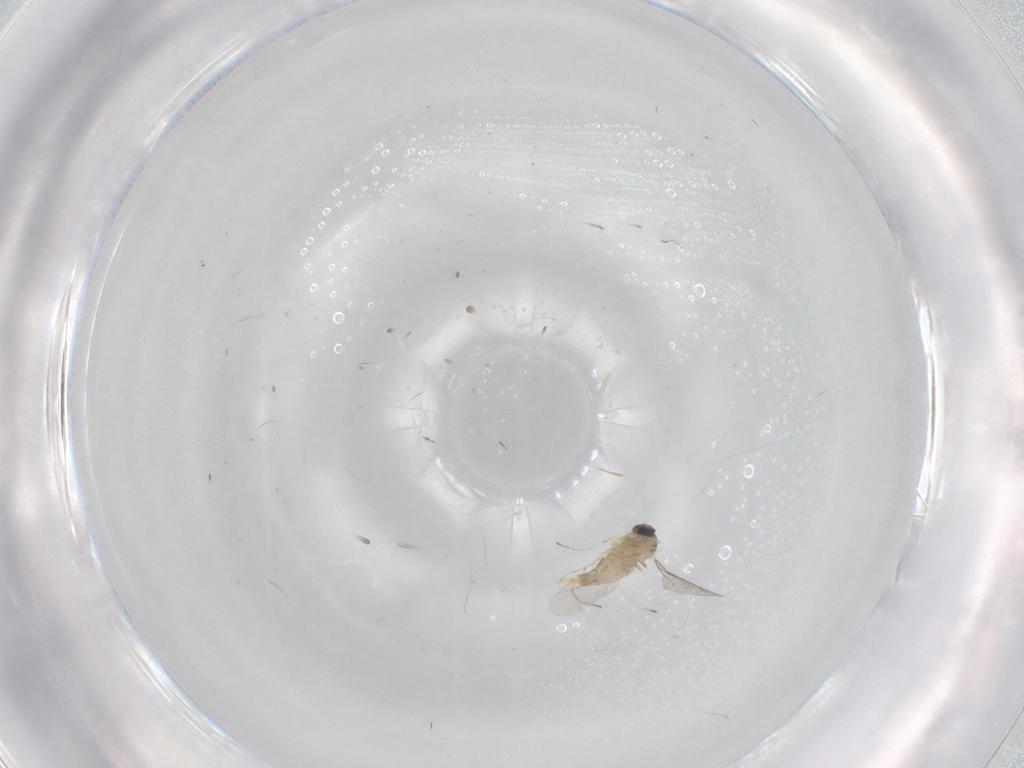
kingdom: Animalia
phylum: Arthropoda
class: Insecta
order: Diptera
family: Cecidomyiidae
